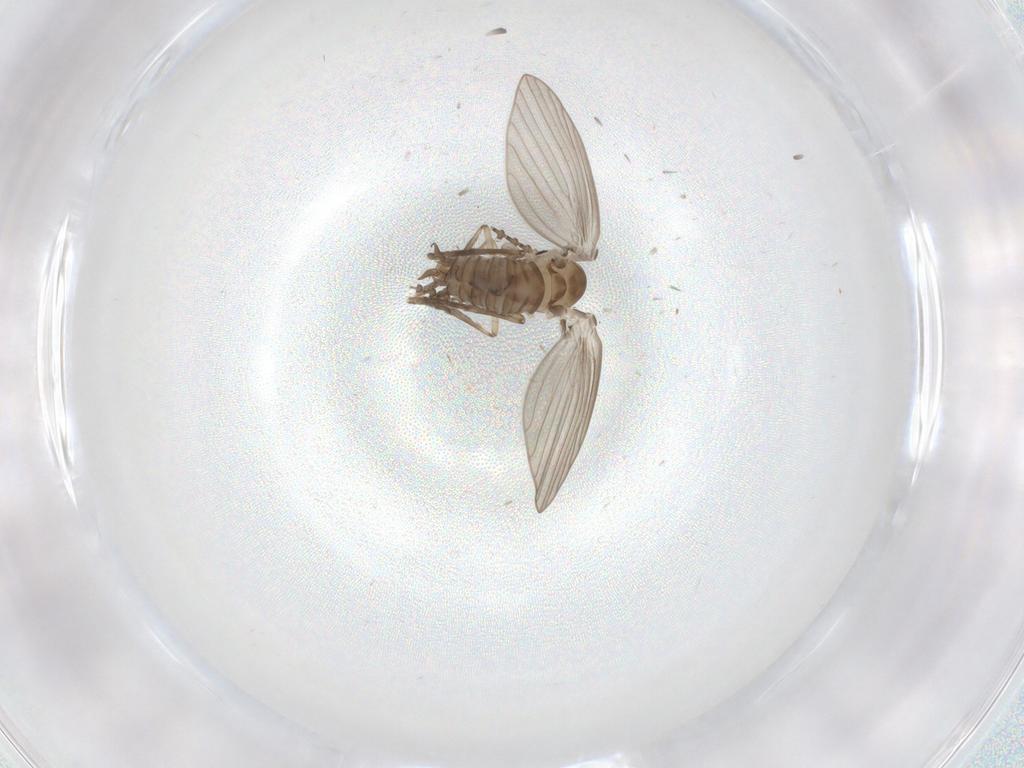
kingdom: Animalia
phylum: Arthropoda
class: Insecta
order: Diptera
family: Psychodidae
